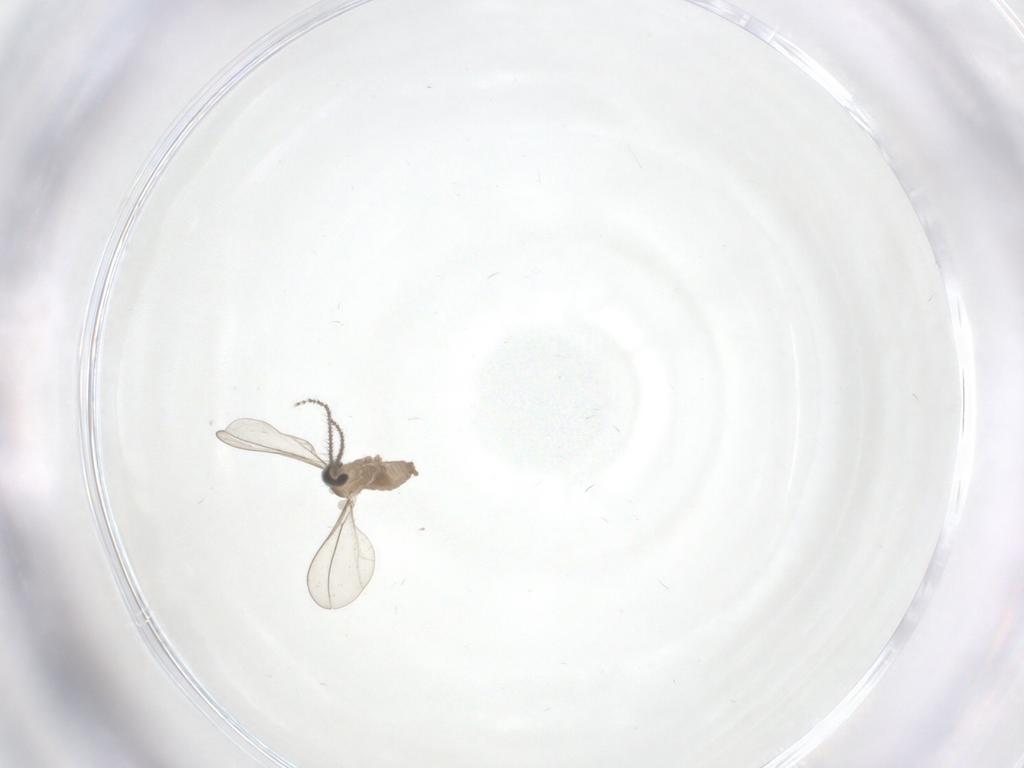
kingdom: Animalia
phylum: Arthropoda
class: Insecta
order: Diptera
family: Cecidomyiidae
